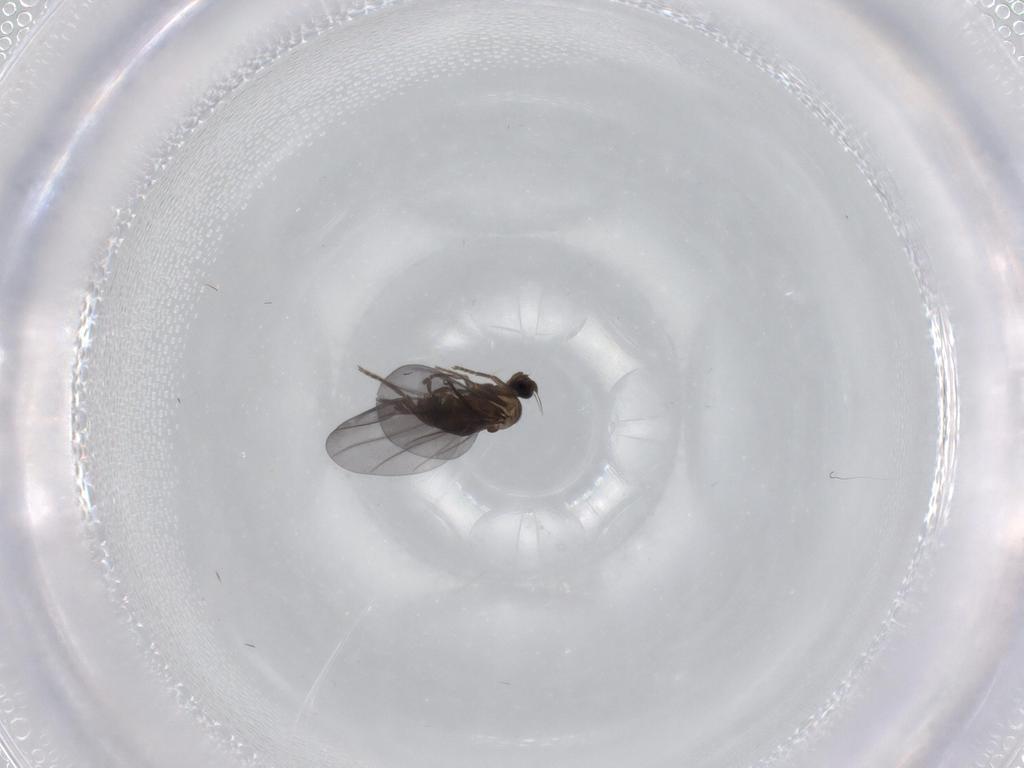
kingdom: Animalia
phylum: Arthropoda
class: Insecta
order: Diptera
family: Phoridae
